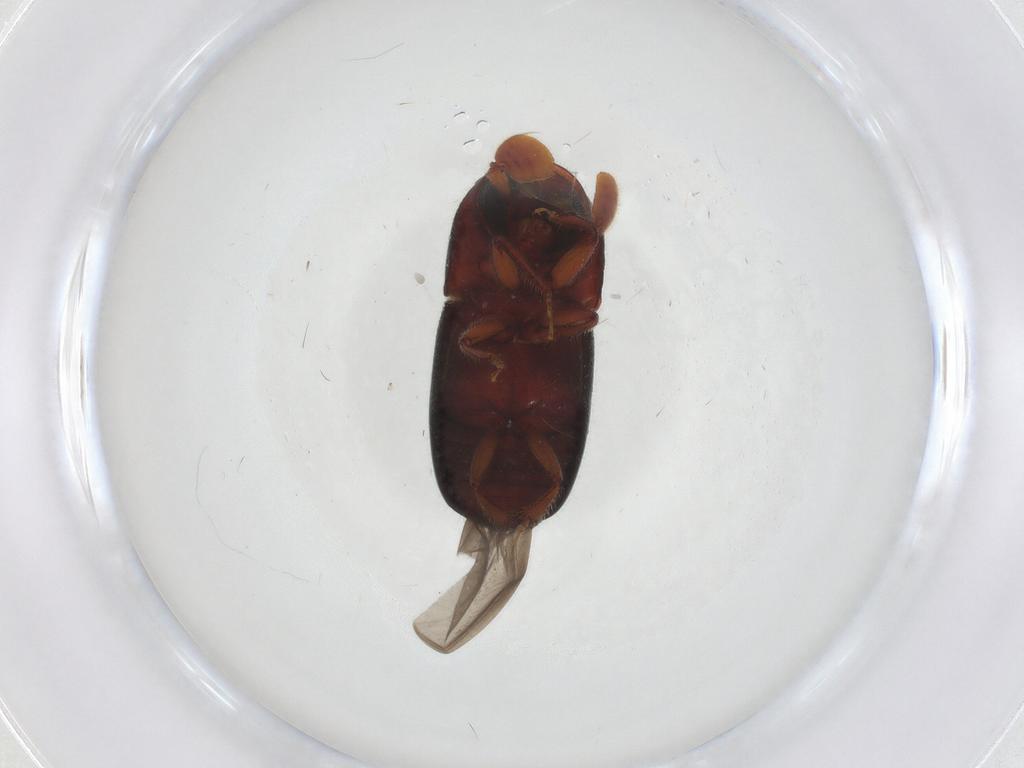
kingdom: Animalia
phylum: Arthropoda
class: Insecta
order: Coleoptera
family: Curculionidae
